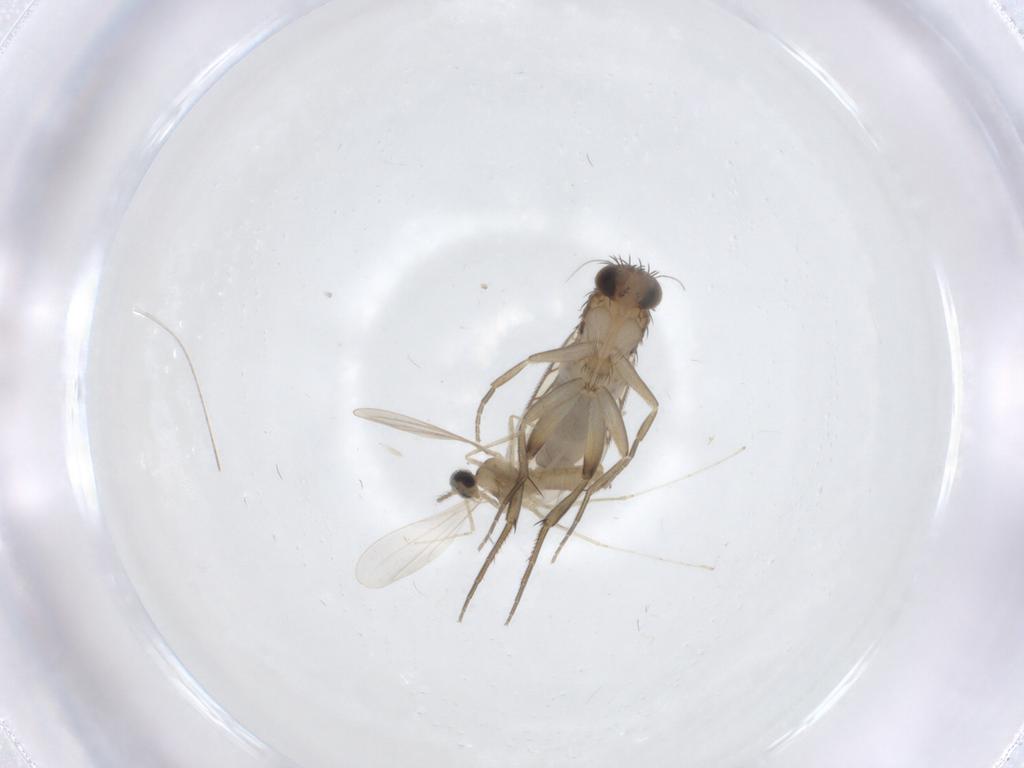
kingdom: Animalia
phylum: Arthropoda
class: Insecta
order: Diptera
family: Phoridae
